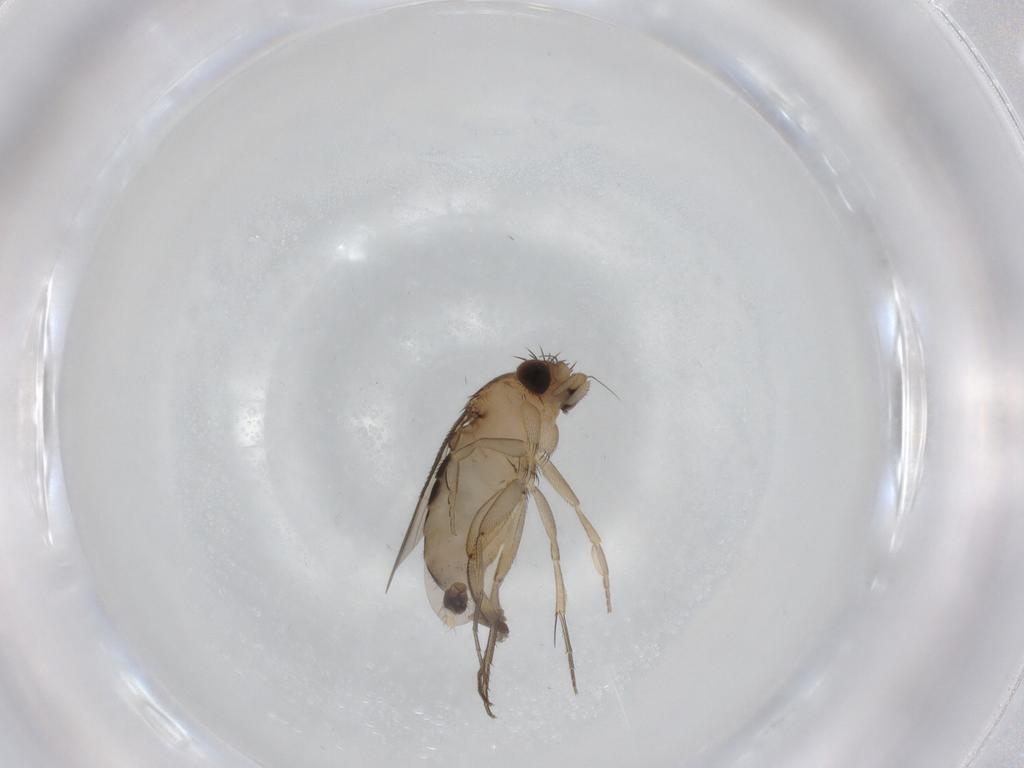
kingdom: Animalia
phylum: Arthropoda
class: Insecta
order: Diptera
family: Phoridae
